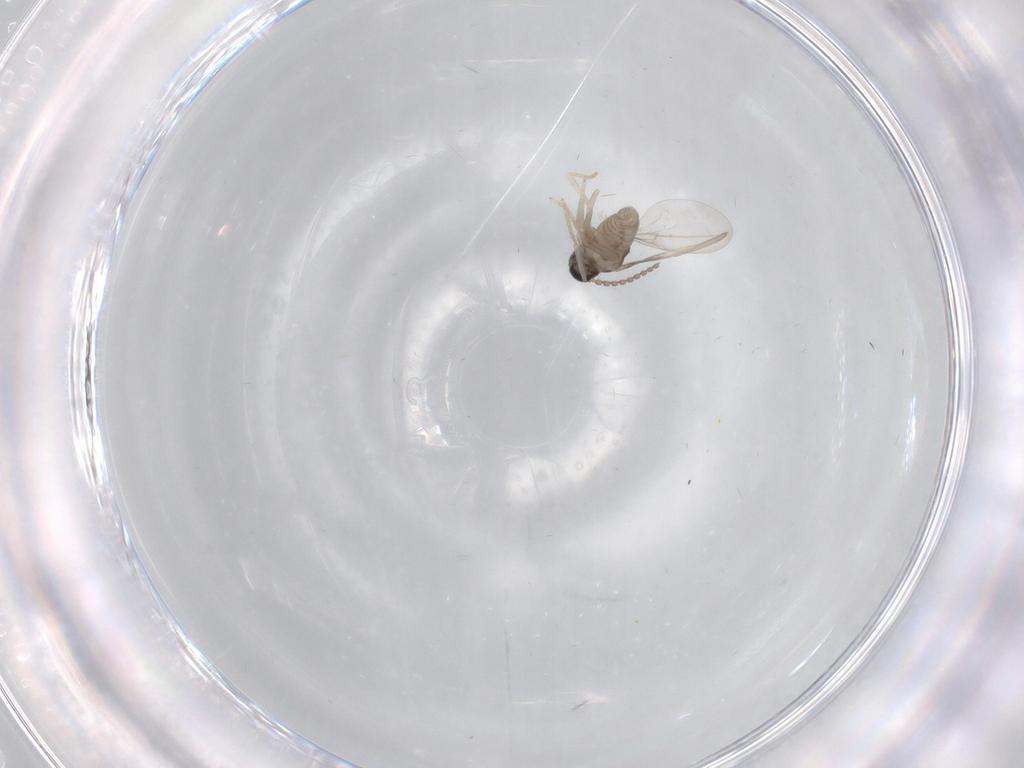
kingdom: Animalia
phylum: Arthropoda
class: Insecta
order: Diptera
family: Cecidomyiidae
